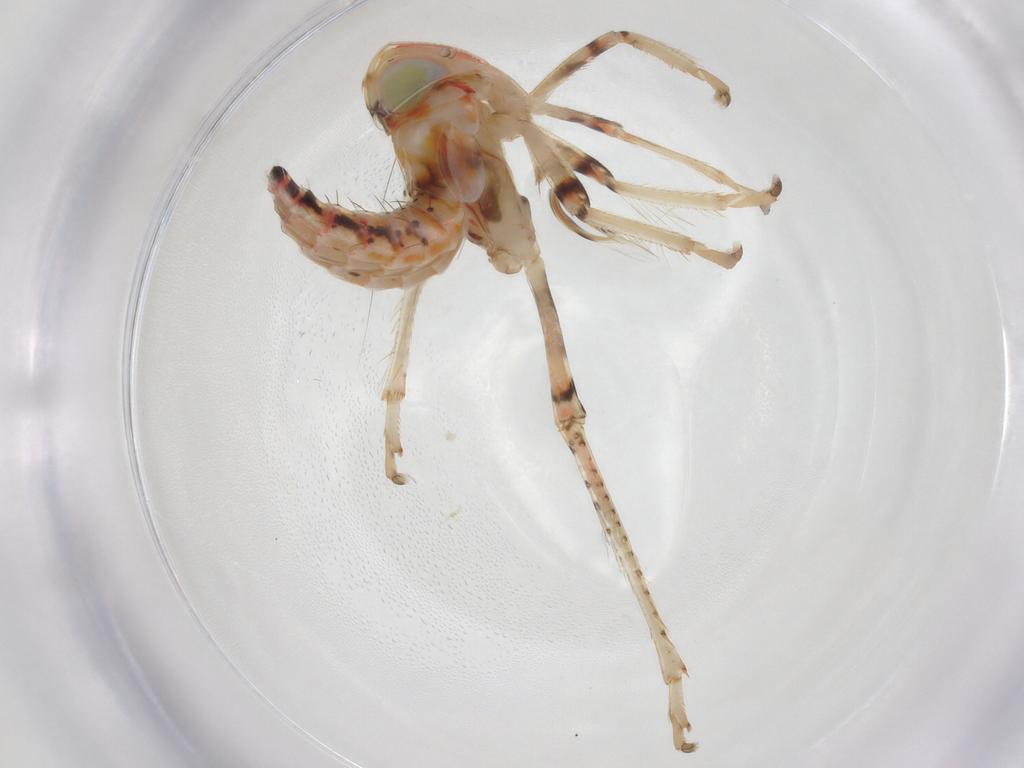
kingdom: Animalia
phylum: Arthropoda
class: Insecta
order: Hemiptera
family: Cicadellidae
